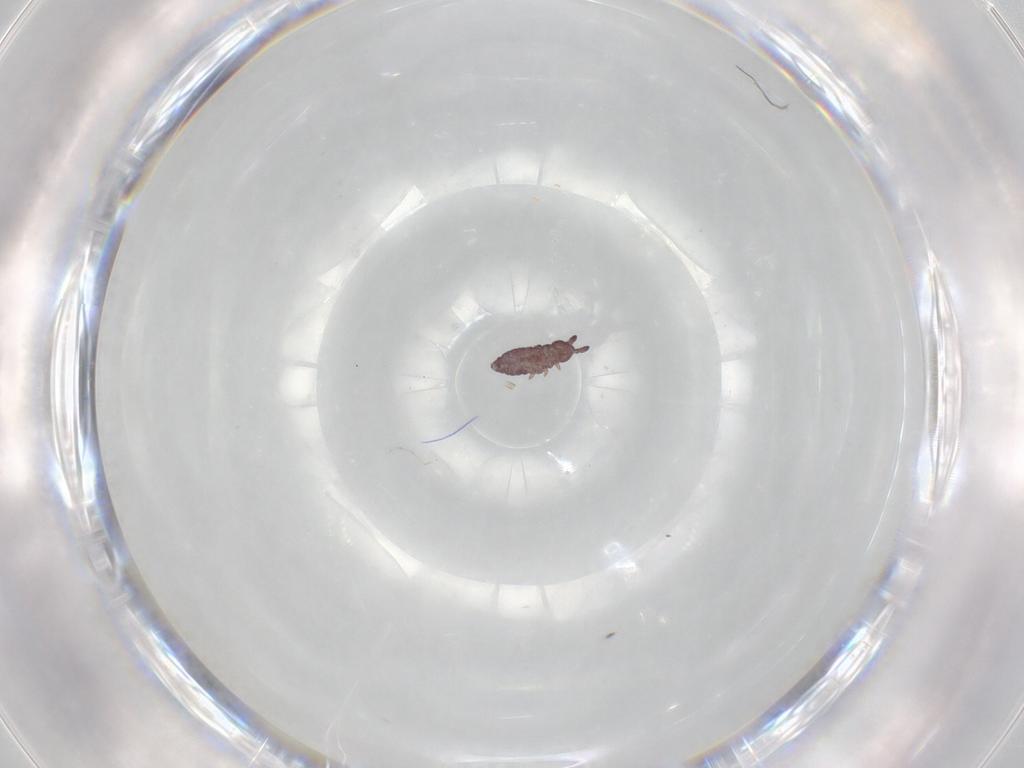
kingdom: Animalia
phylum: Arthropoda
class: Collembola
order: Poduromorpha
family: Hypogastruridae
